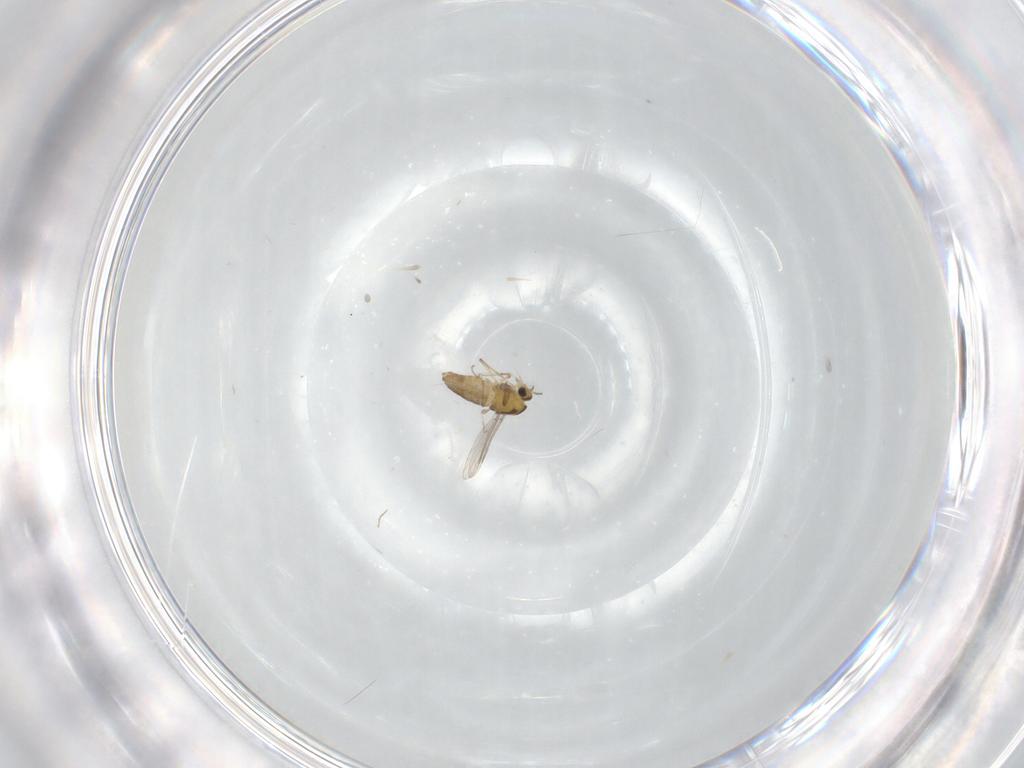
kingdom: Animalia
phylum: Arthropoda
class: Insecta
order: Diptera
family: Chironomidae
